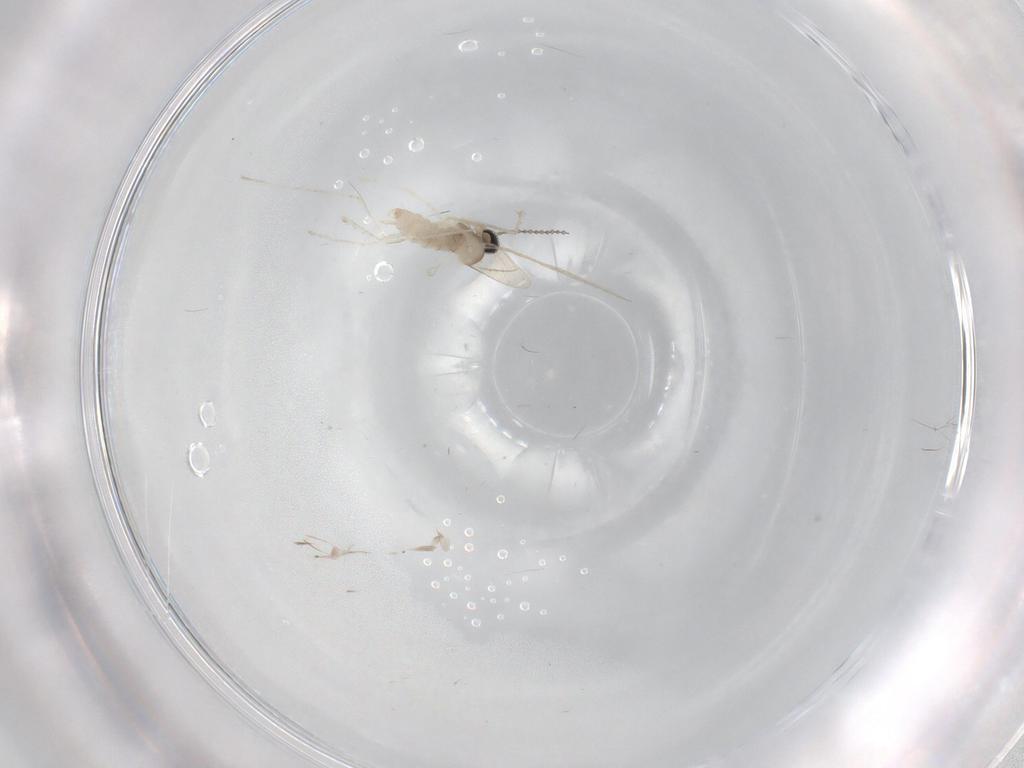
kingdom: Animalia
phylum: Arthropoda
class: Insecta
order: Diptera
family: Cecidomyiidae
